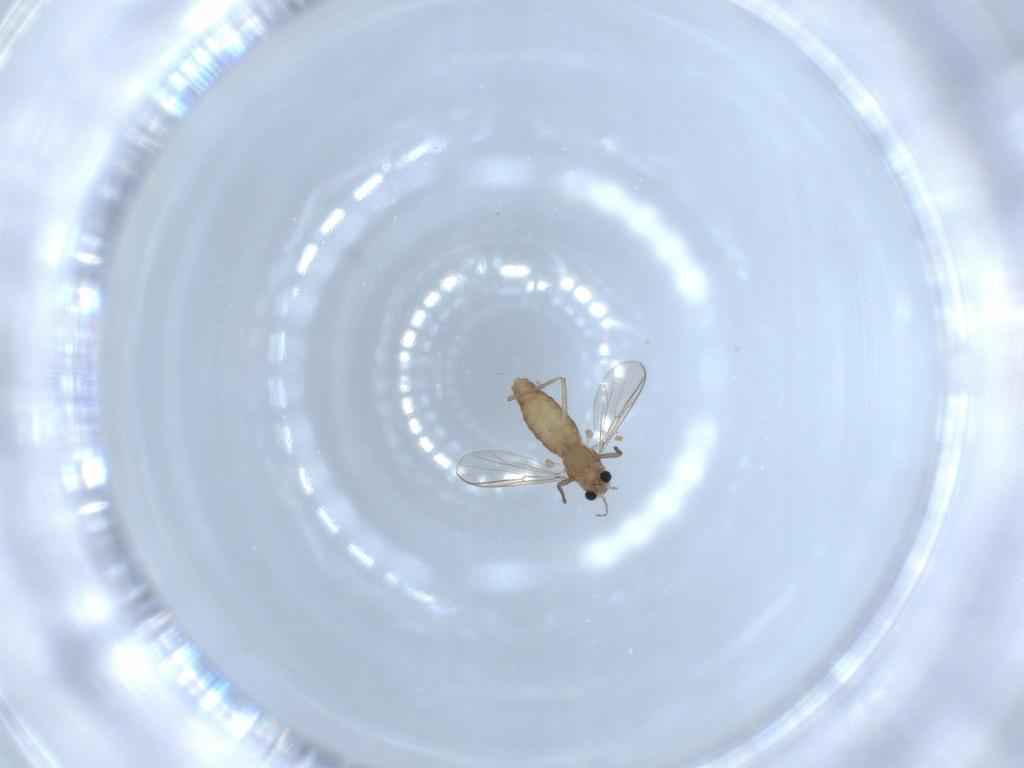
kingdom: Animalia
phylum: Arthropoda
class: Insecta
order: Diptera
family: Chironomidae
